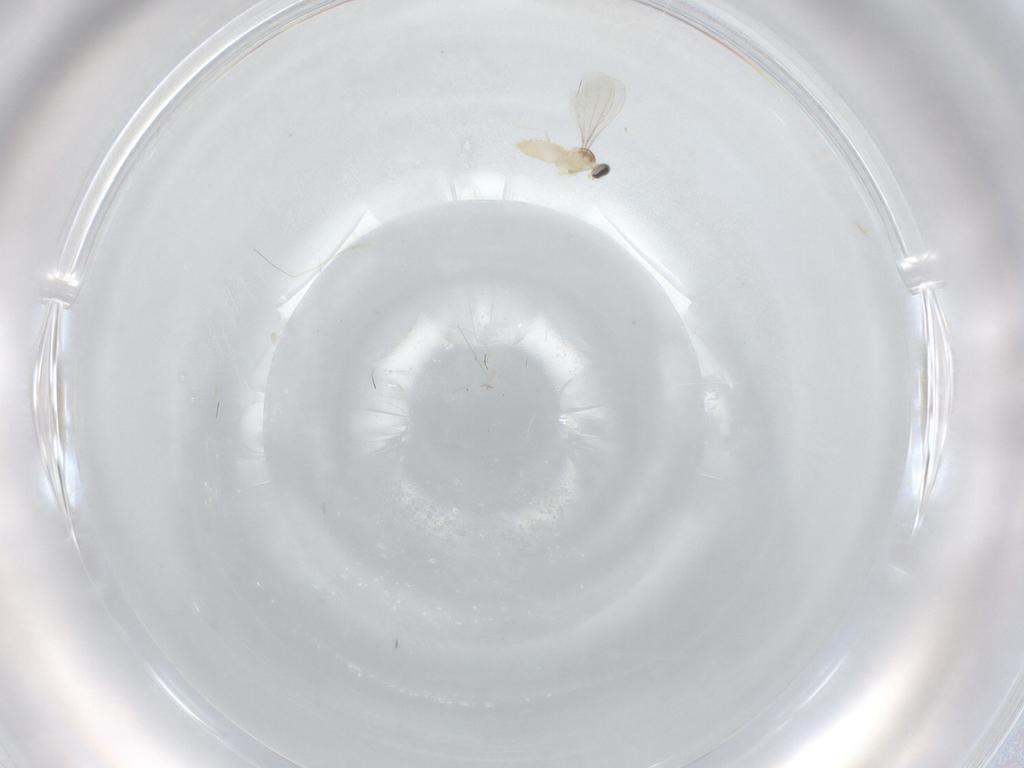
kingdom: Animalia
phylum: Arthropoda
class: Insecta
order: Diptera
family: Cecidomyiidae
